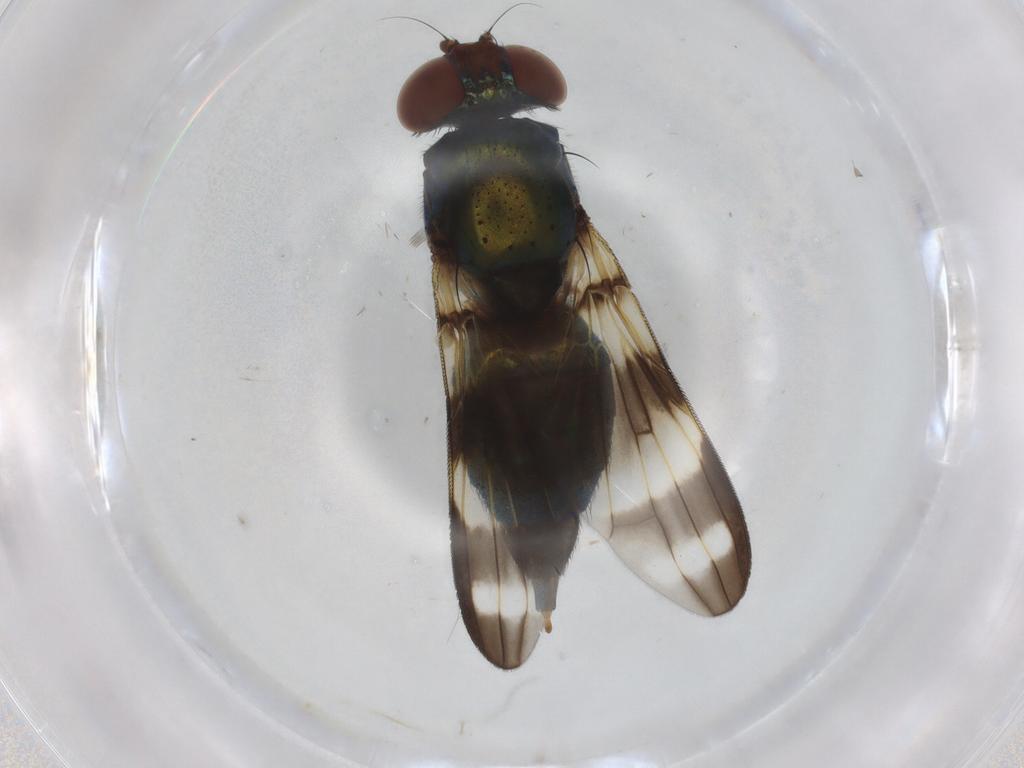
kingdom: Animalia
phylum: Arthropoda
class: Insecta
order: Diptera
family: Ulidiidae
